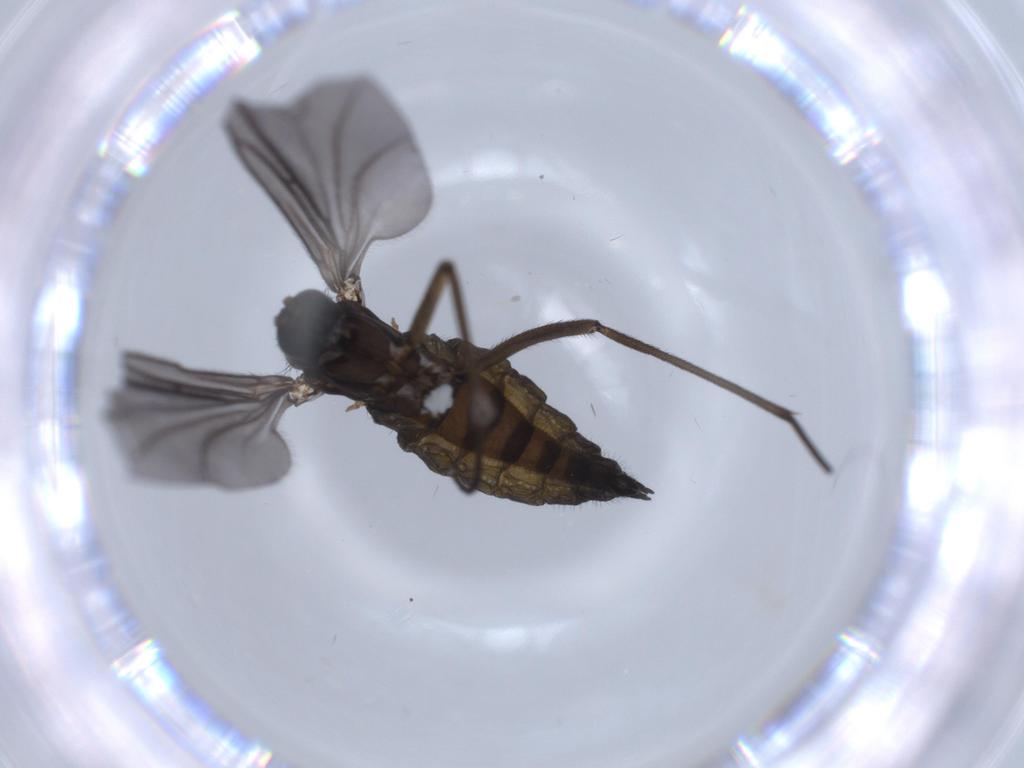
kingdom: Animalia
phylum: Arthropoda
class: Insecta
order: Diptera
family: Sciaridae
